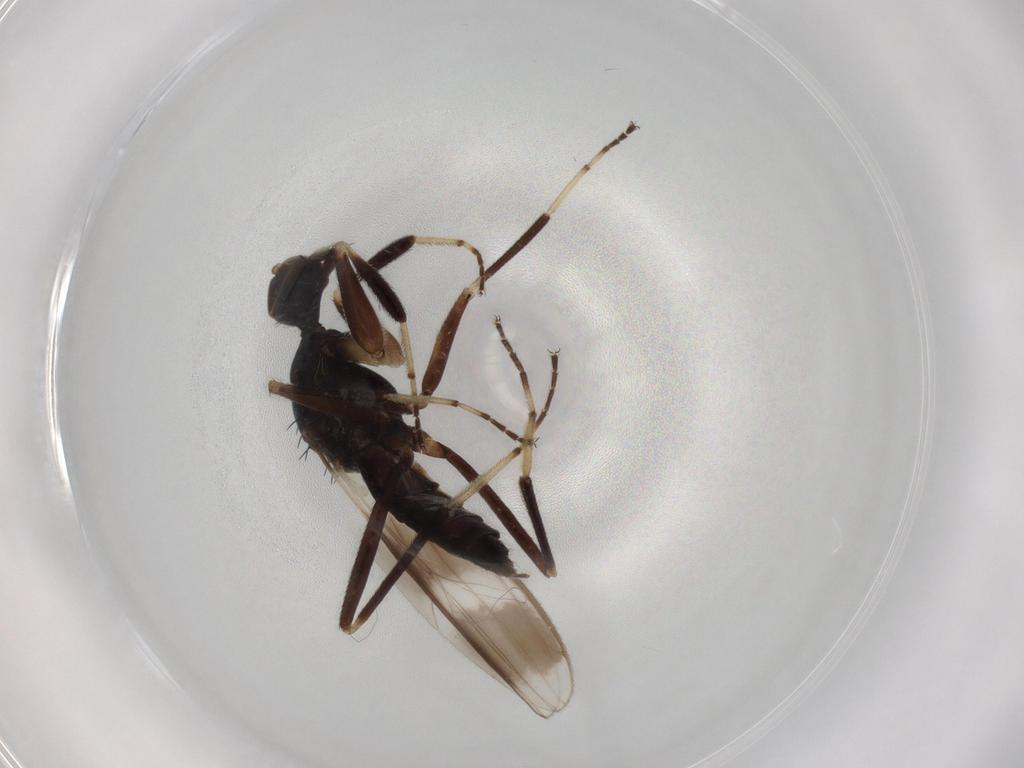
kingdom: Animalia
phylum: Arthropoda
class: Insecta
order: Diptera
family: Hybotidae
